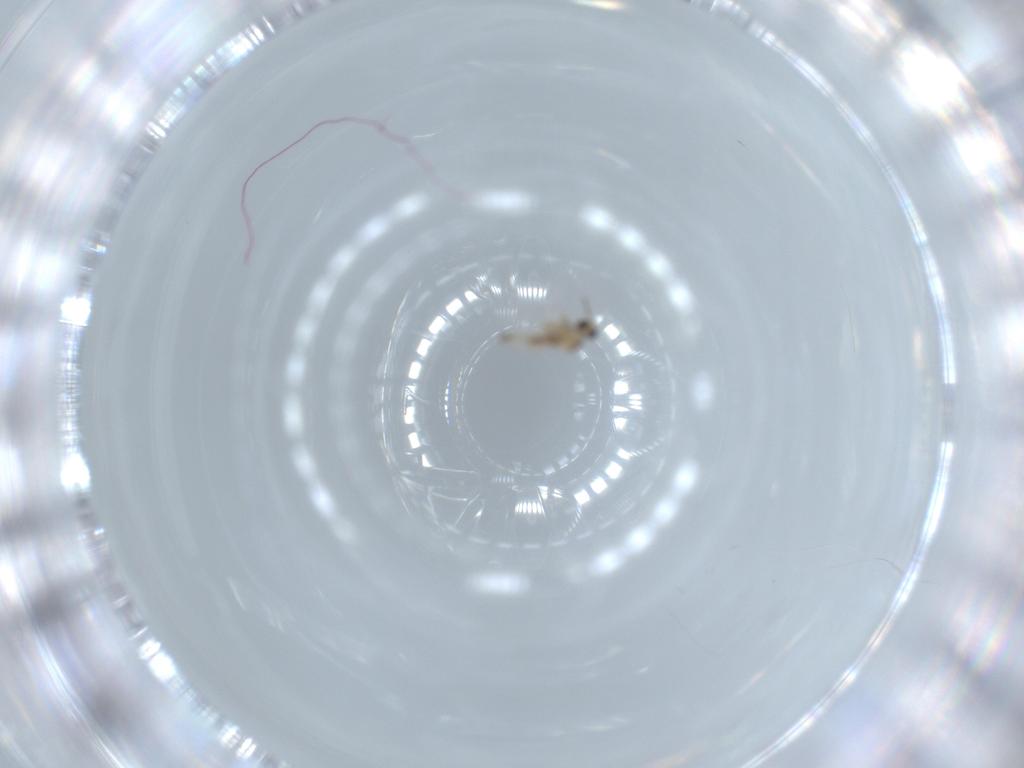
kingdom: Animalia
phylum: Arthropoda
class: Insecta
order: Diptera
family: Cecidomyiidae
